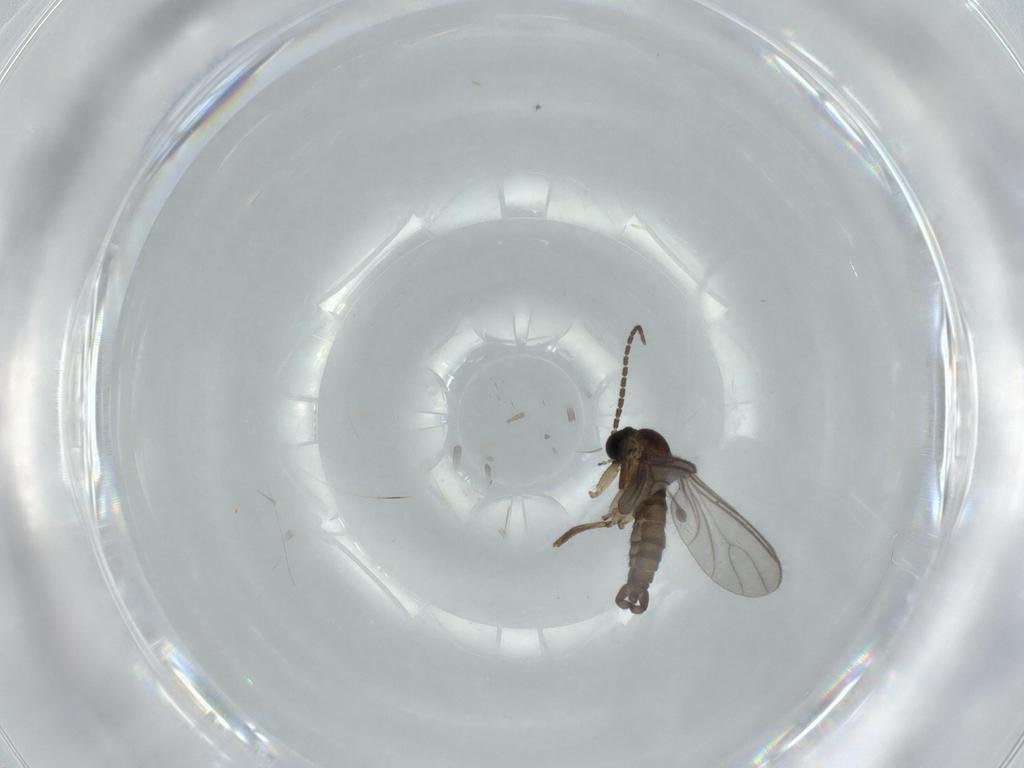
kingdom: Animalia
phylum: Arthropoda
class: Insecta
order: Diptera
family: Sciaridae
